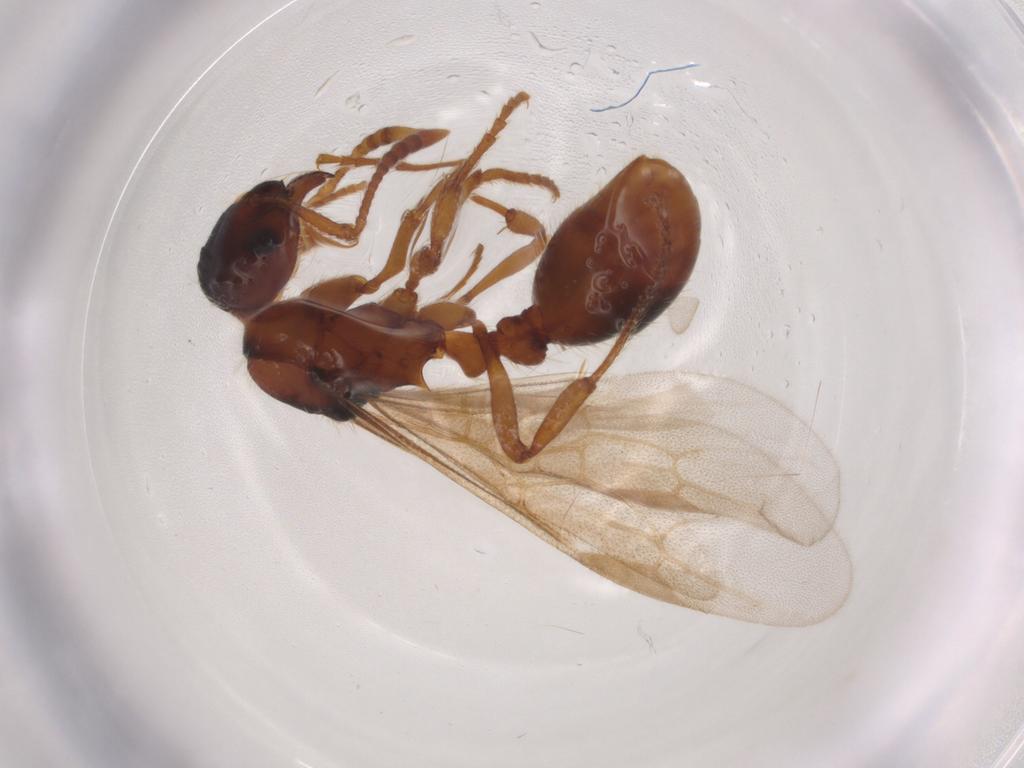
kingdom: Animalia
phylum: Arthropoda
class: Insecta
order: Hymenoptera
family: Formicidae
